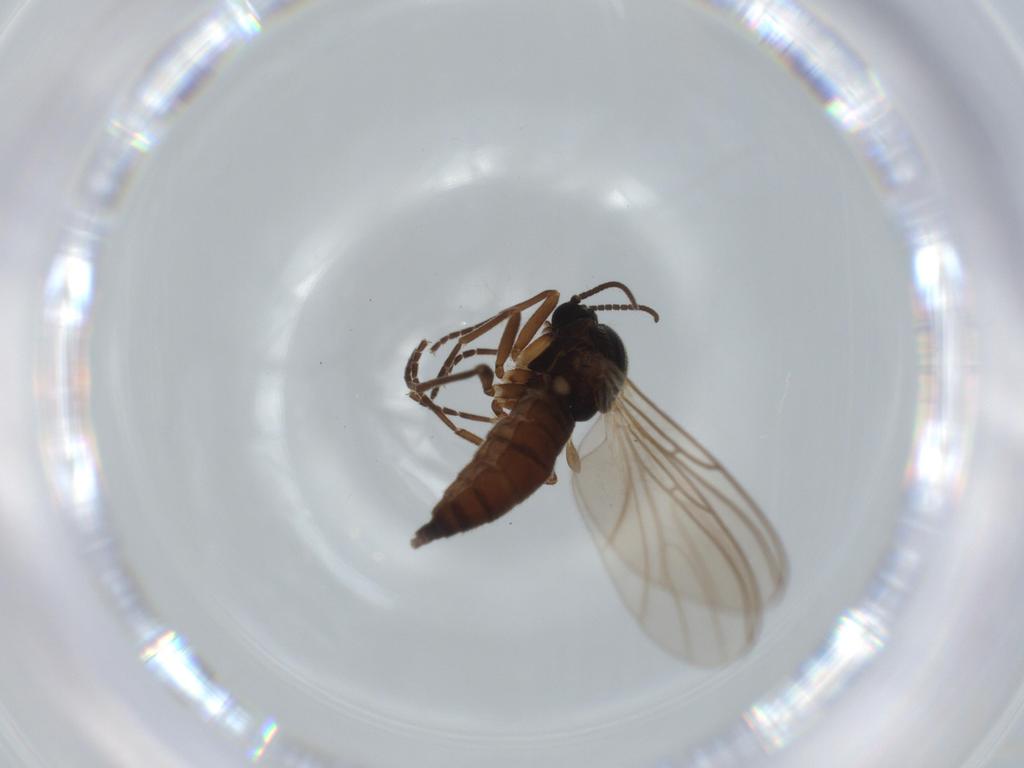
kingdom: Animalia
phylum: Arthropoda
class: Insecta
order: Diptera
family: Sciaridae
